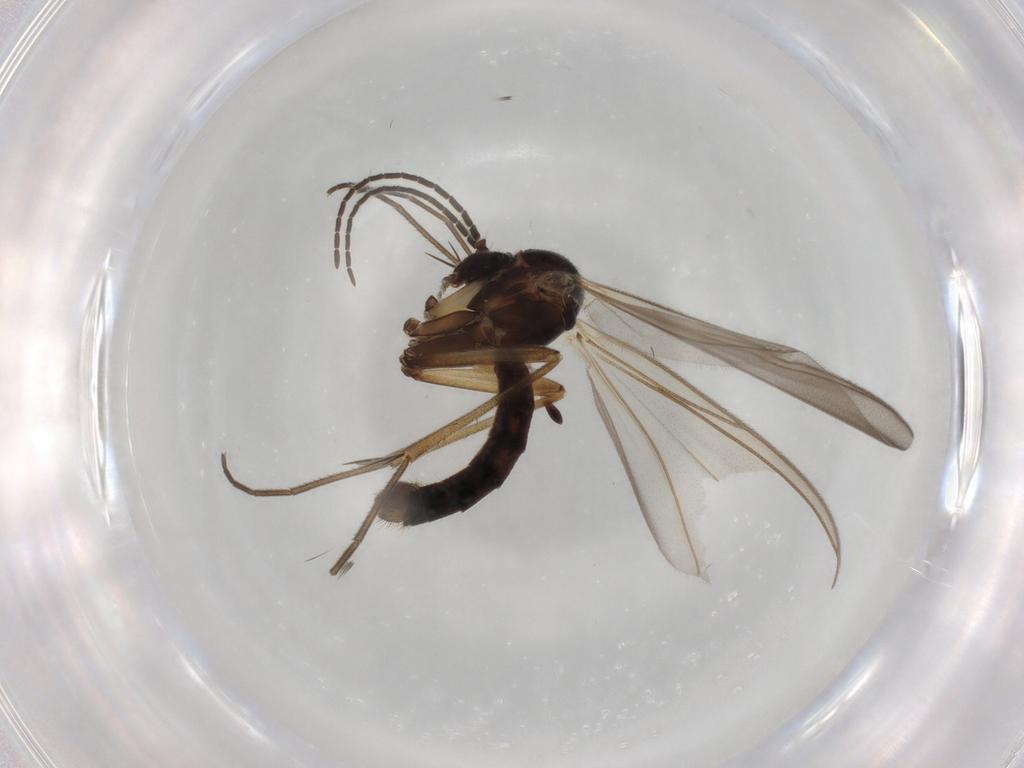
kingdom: Animalia
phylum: Arthropoda
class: Insecta
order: Diptera
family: Mycetophilidae
